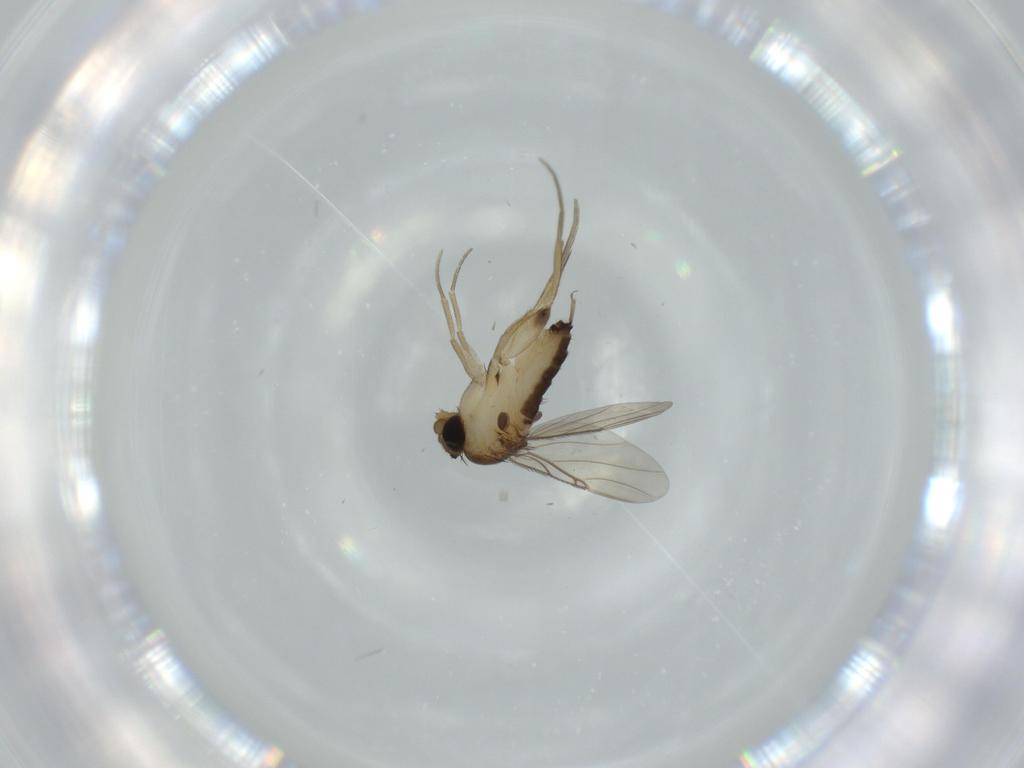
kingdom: Animalia
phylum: Arthropoda
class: Insecta
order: Diptera
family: Phoridae
